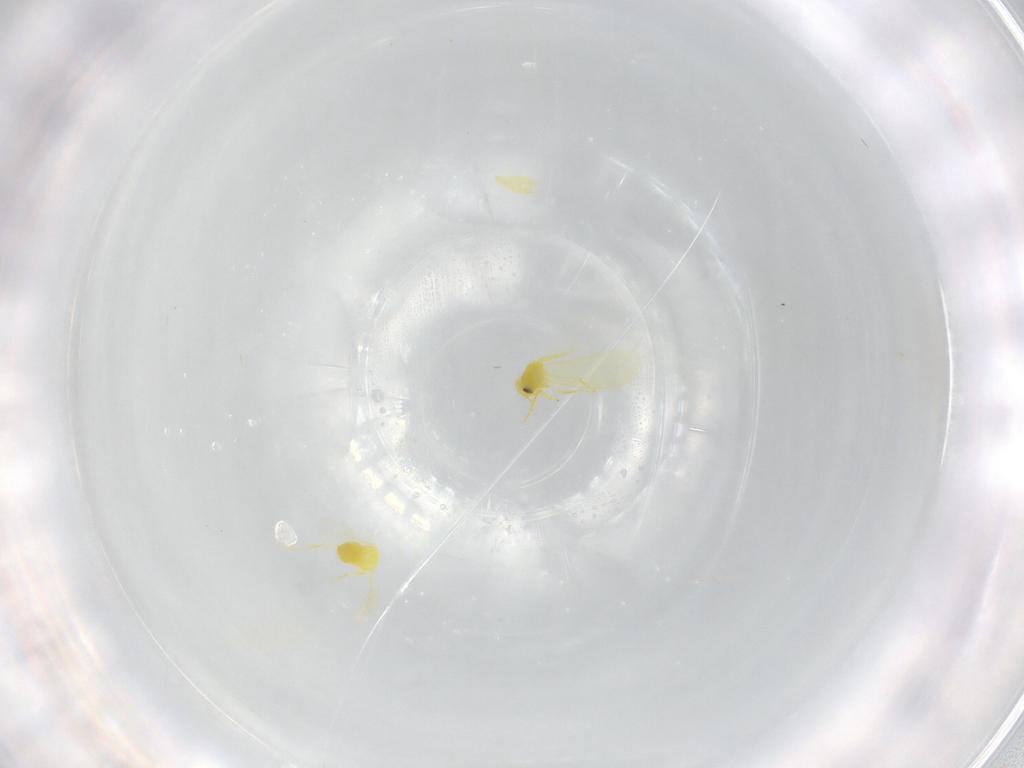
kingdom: Animalia
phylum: Arthropoda
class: Insecta
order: Hemiptera
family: Aleyrodidae
